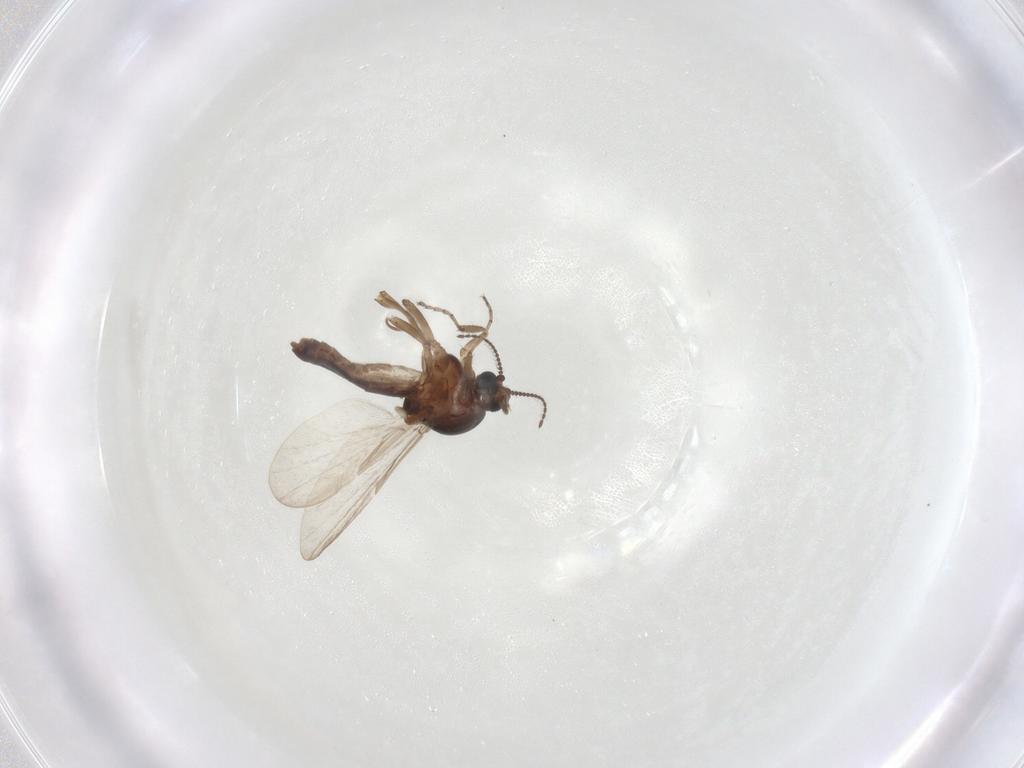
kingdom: Animalia
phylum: Arthropoda
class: Insecta
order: Diptera
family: Ceratopogonidae
